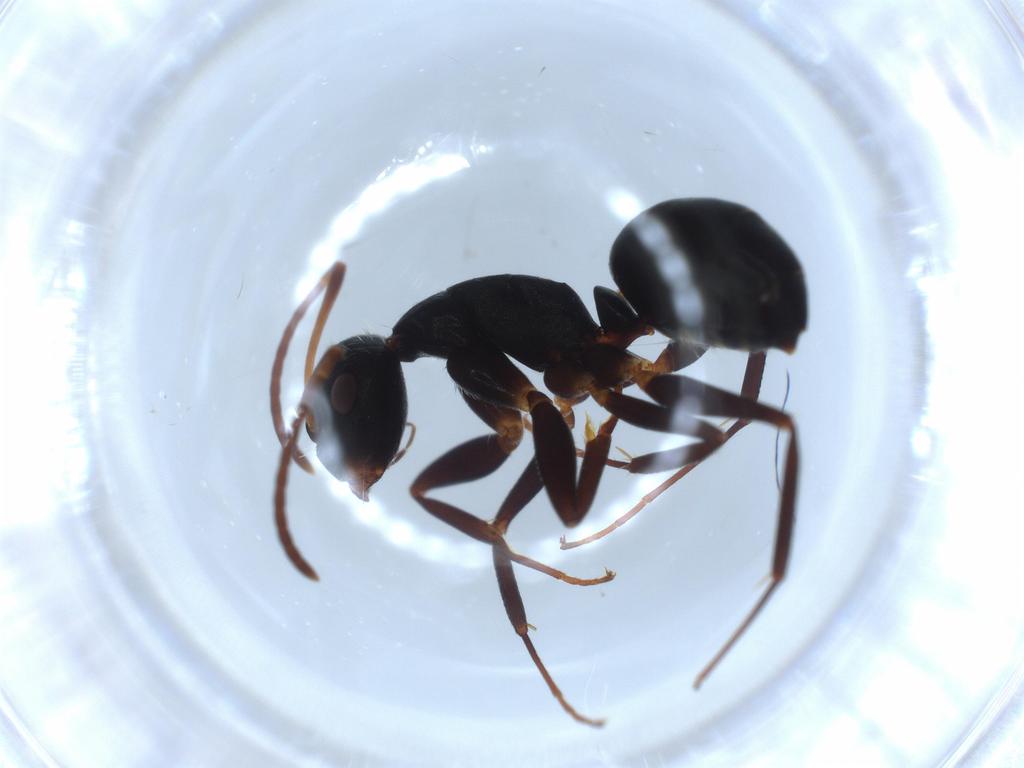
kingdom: Animalia
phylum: Arthropoda
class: Insecta
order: Hymenoptera
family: Formicidae
